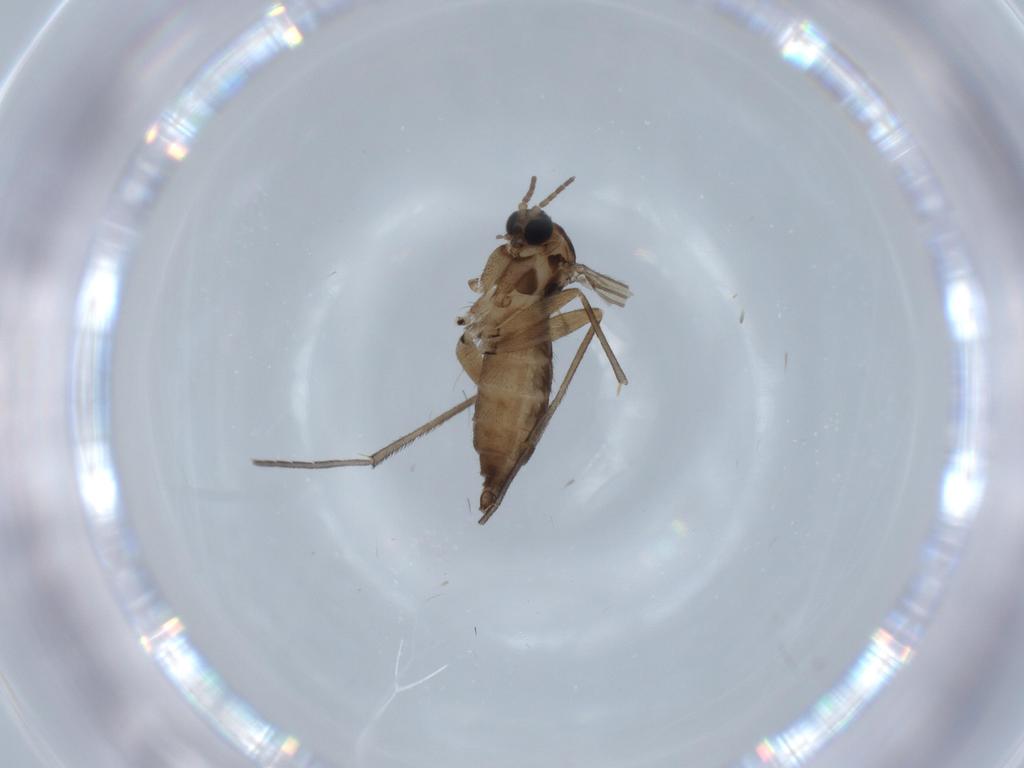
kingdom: Animalia
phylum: Arthropoda
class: Insecta
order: Diptera
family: Sciaridae
